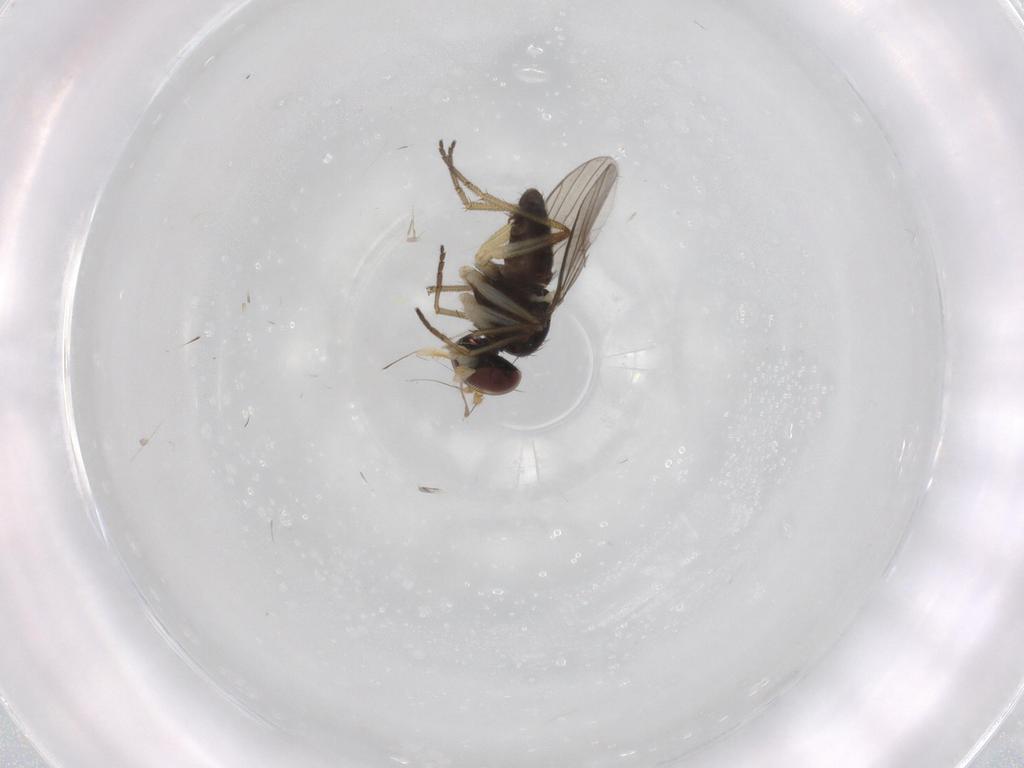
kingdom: Animalia
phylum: Arthropoda
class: Insecta
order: Diptera
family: Dolichopodidae
